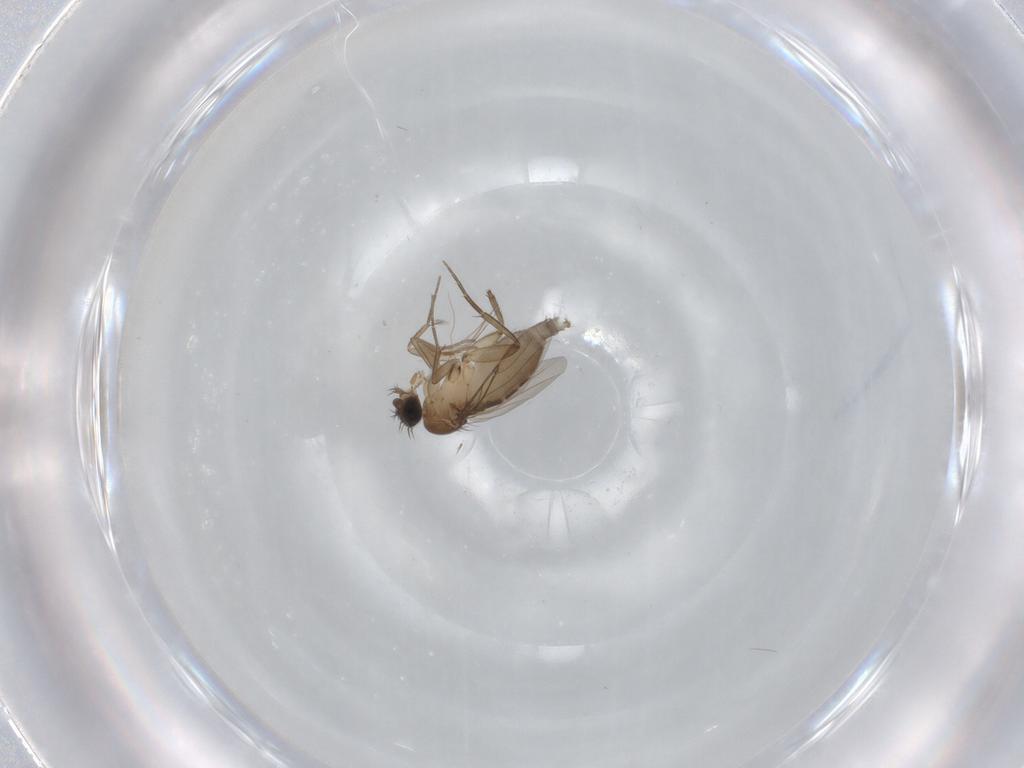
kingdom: Animalia
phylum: Arthropoda
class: Insecta
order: Diptera
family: Phoridae
